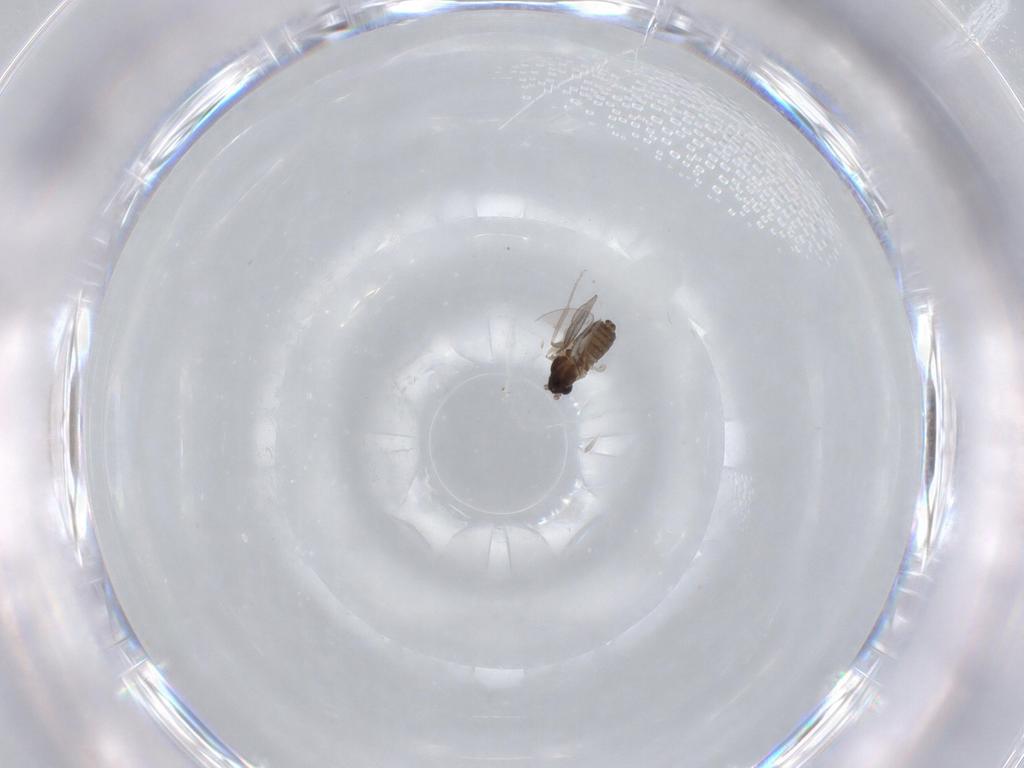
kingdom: Animalia
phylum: Arthropoda
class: Insecta
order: Diptera
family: Cecidomyiidae
